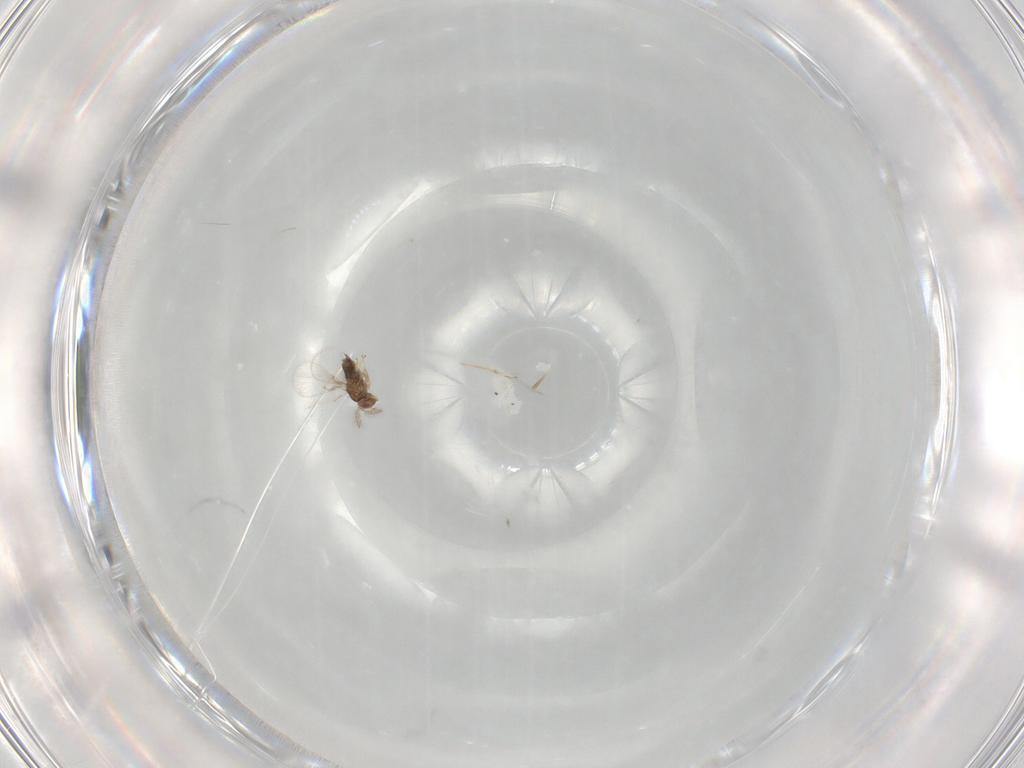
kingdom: Animalia
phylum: Arthropoda
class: Insecta
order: Hymenoptera
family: Trichogrammatidae
